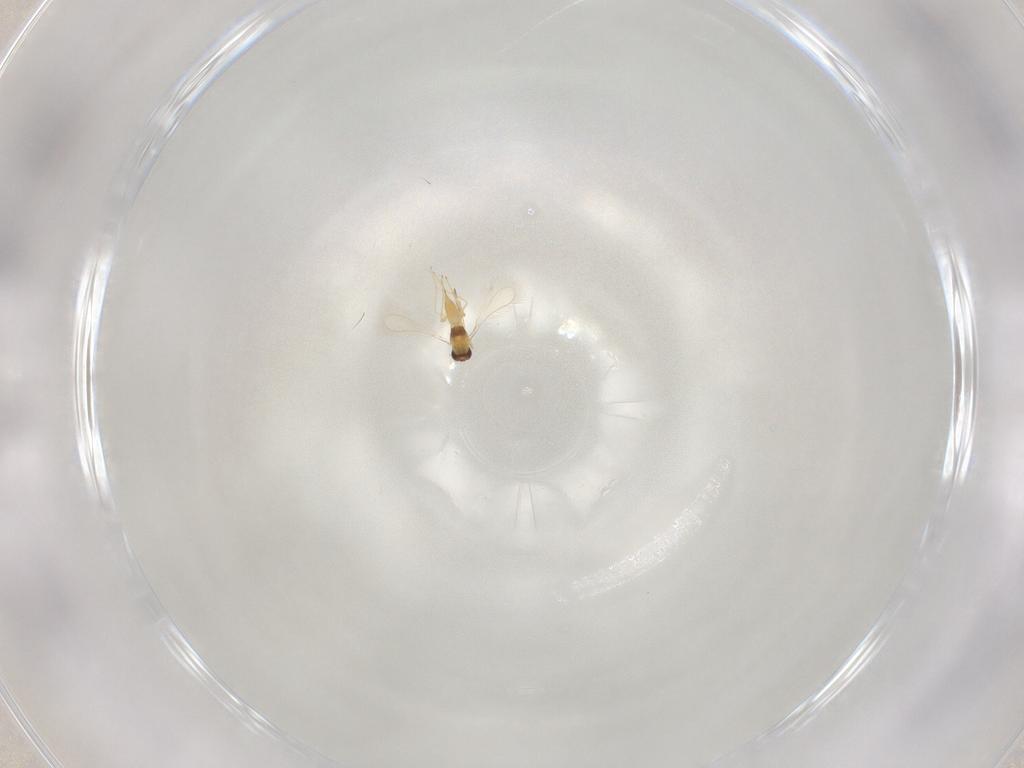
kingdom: Animalia
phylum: Arthropoda
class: Insecta
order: Hymenoptera
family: Mymaridae
